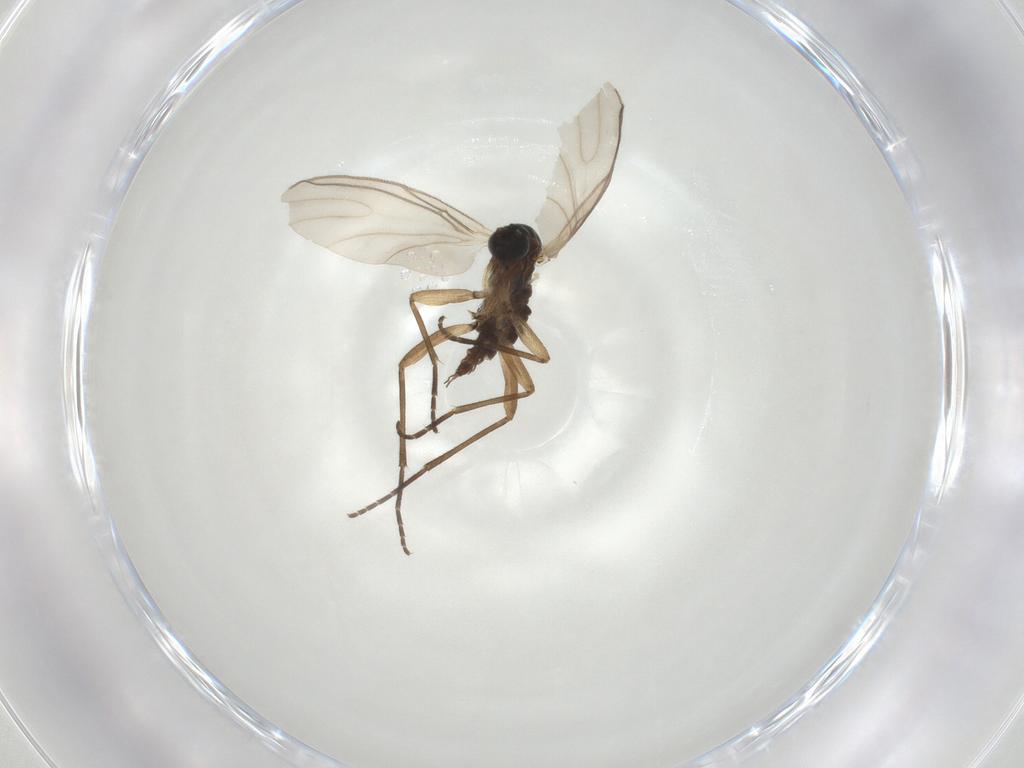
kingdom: Animalia
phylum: Arthropoda
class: Insecta
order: Diptera
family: Sciaridae
